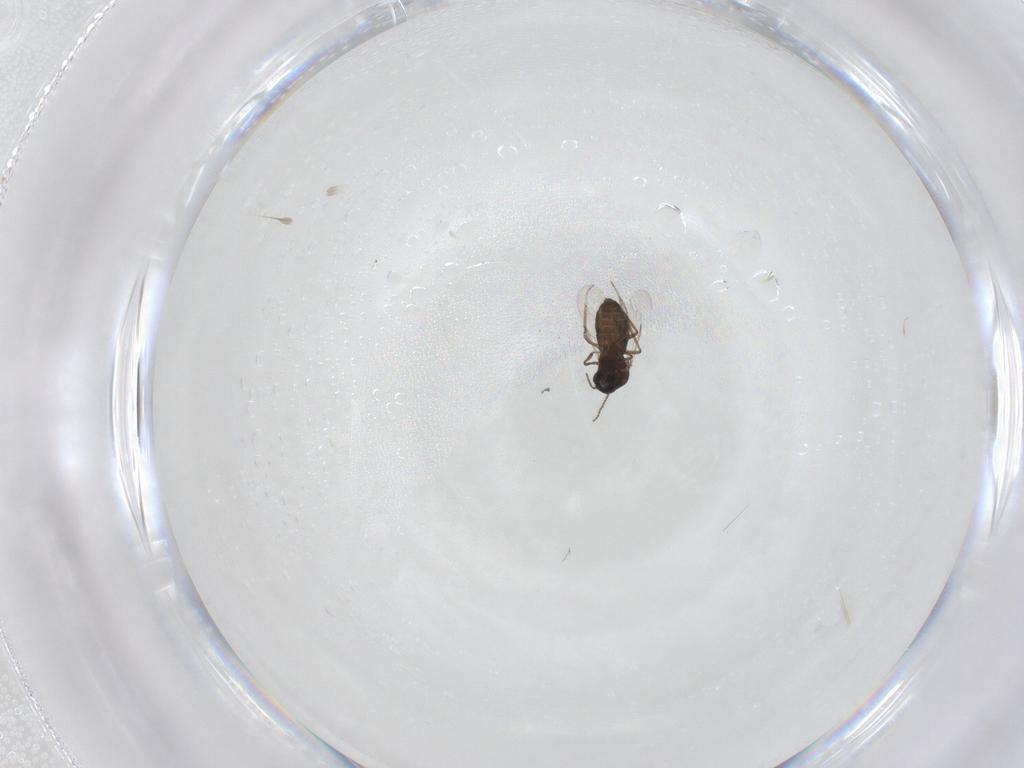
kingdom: Animalia
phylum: Arthropoda
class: Insecta
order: Diptera
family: Ceratopogonidae
